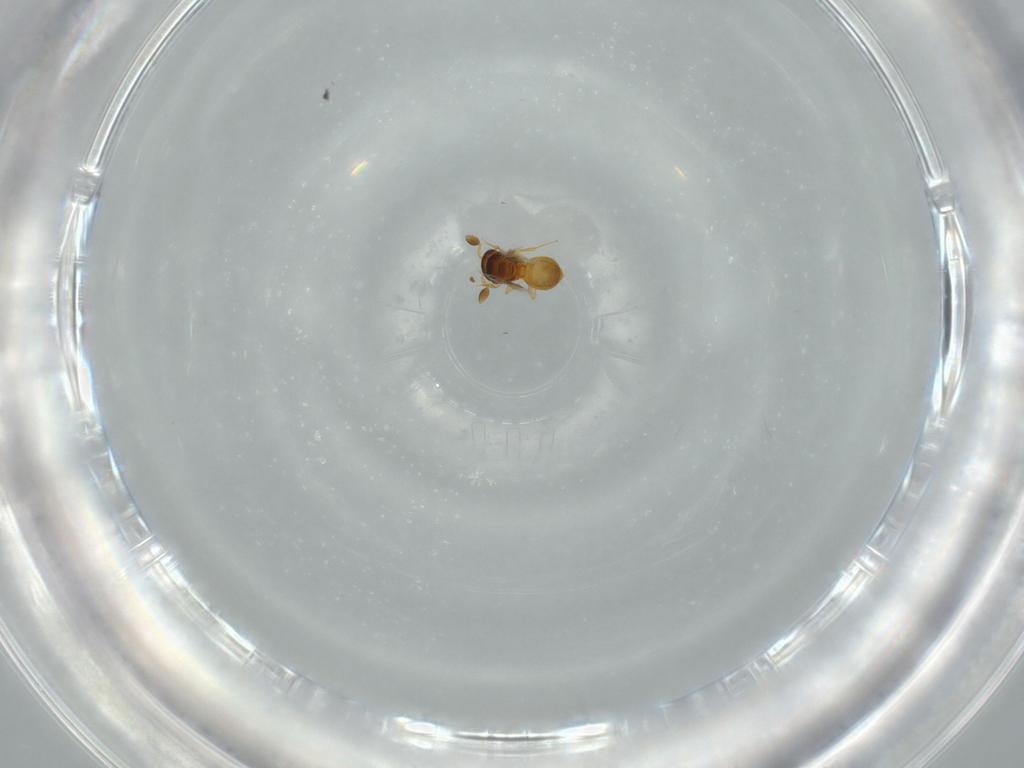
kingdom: Animalia
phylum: Arthropoda
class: Insecta
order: Hymenoptera
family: Scelionidae
